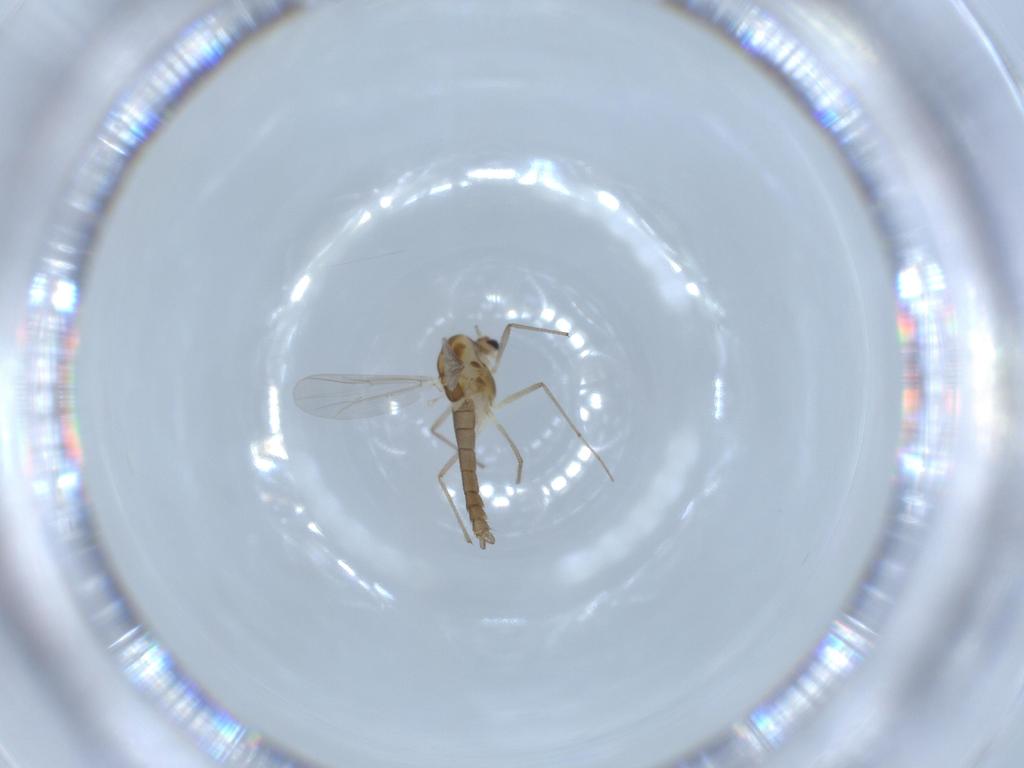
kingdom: Animalia
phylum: Arthropoda
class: Insecta
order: Diptera
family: Chironomidae
